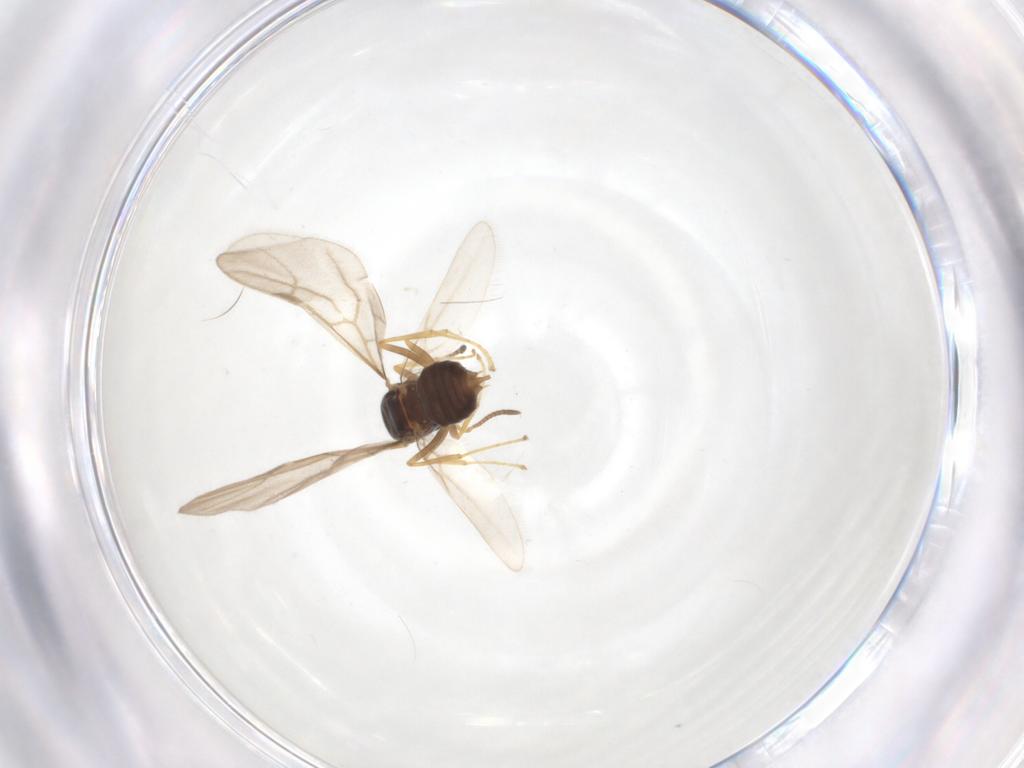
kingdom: Animalia
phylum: Arthropoda
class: Insecta
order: Hymenoptera
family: Formicidae
